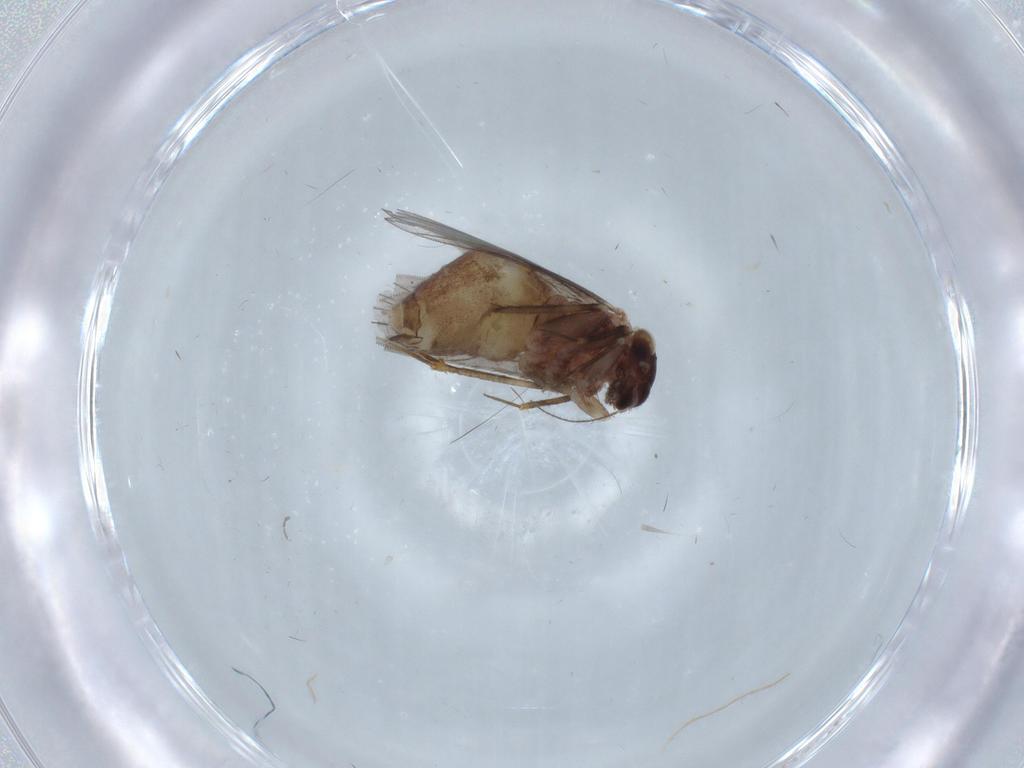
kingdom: Animalia
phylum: Arthropoda
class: Insecta
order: Psocodea
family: Lepidopsocidae
